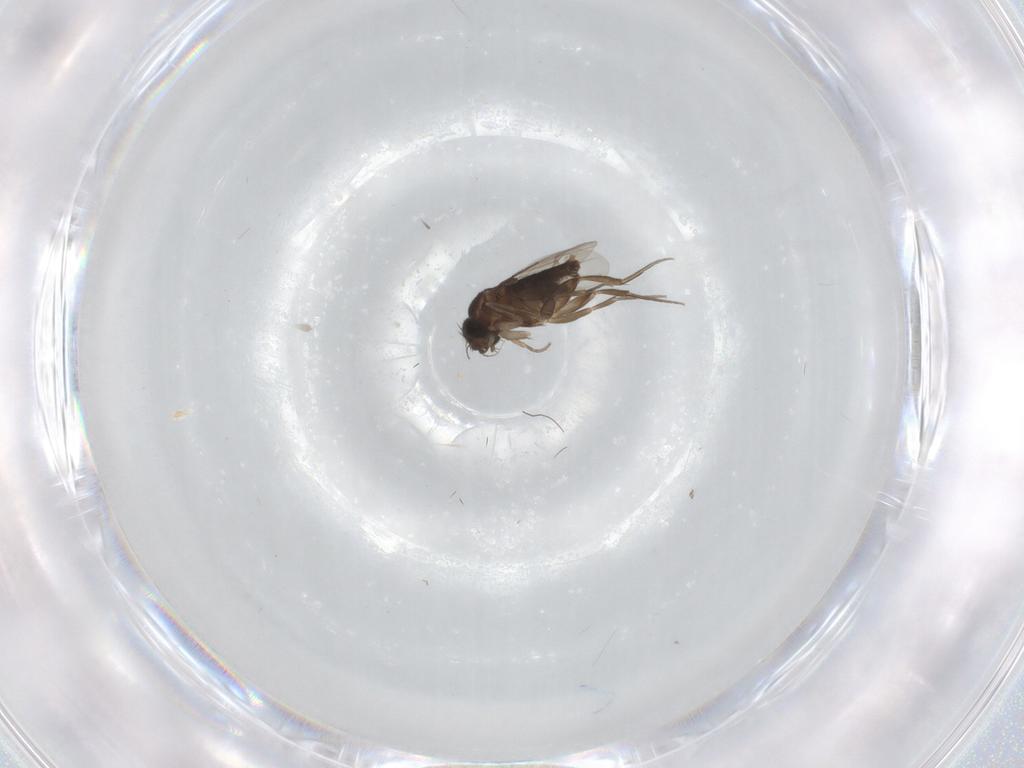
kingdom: Animalia
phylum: Arthropoda
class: Insecta
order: Diptera
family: Phoridae
